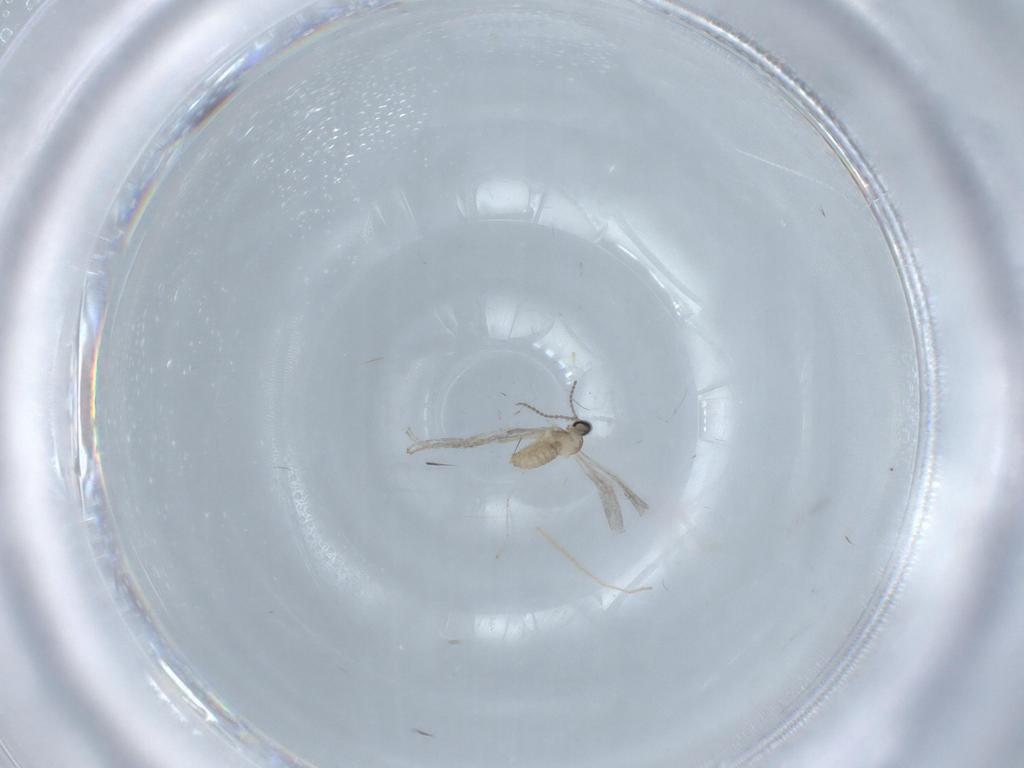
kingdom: Animalia
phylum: Arthropoda
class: Insecta
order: Diptera
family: Chironomidae
